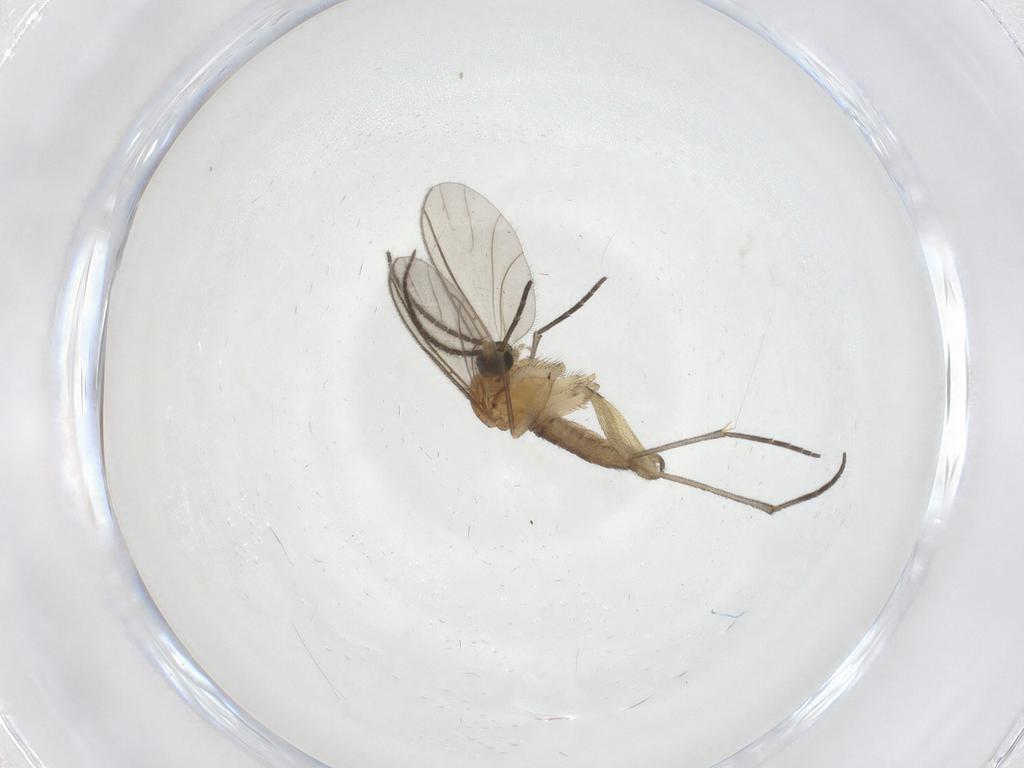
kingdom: Animalia
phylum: Arthropoda
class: Insecta
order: Diptera
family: Sciaridae
